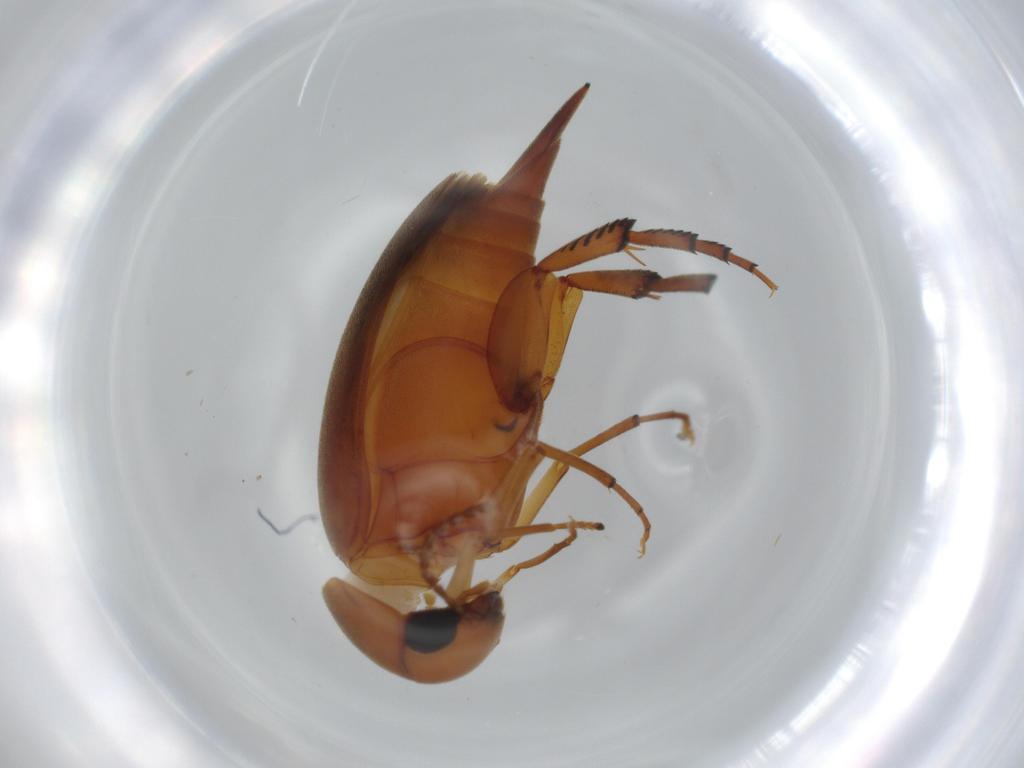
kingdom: Animalia
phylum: Arthropoda
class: Insecta
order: Coleoptera
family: Mordellidae
